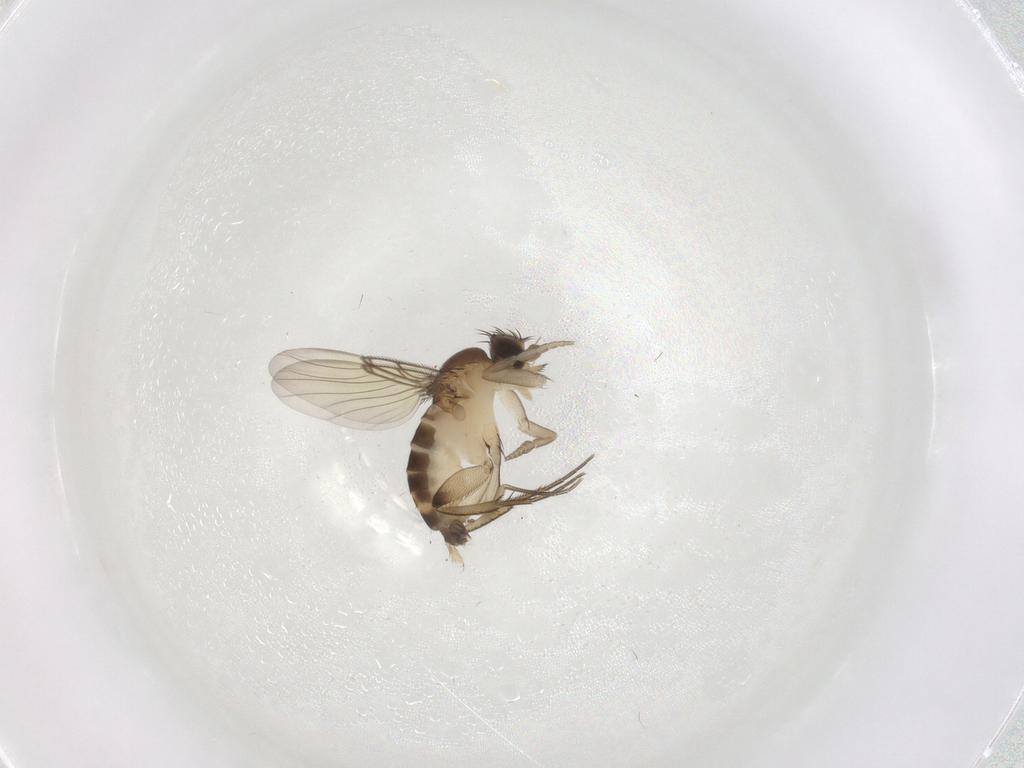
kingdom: Animalia
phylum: Arthropoda
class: Insecta
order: Diptera
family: Phoridae
